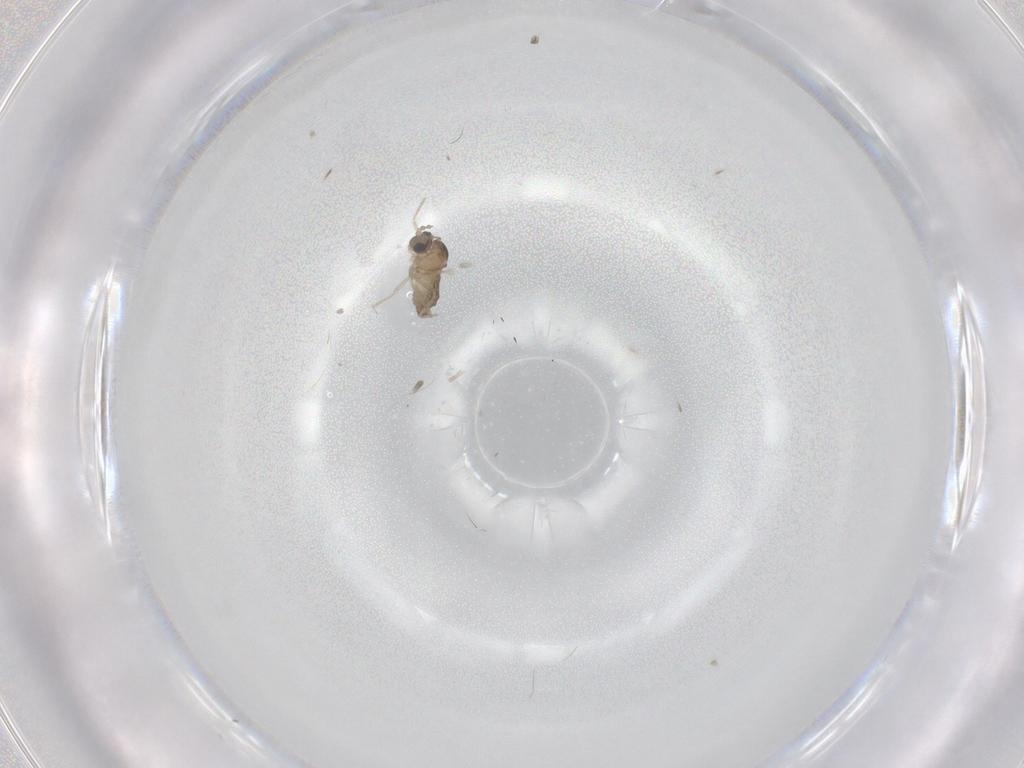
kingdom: Animalia
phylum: Arthropoda
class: Insecta
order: Diptera
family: Cecidomyiidae
